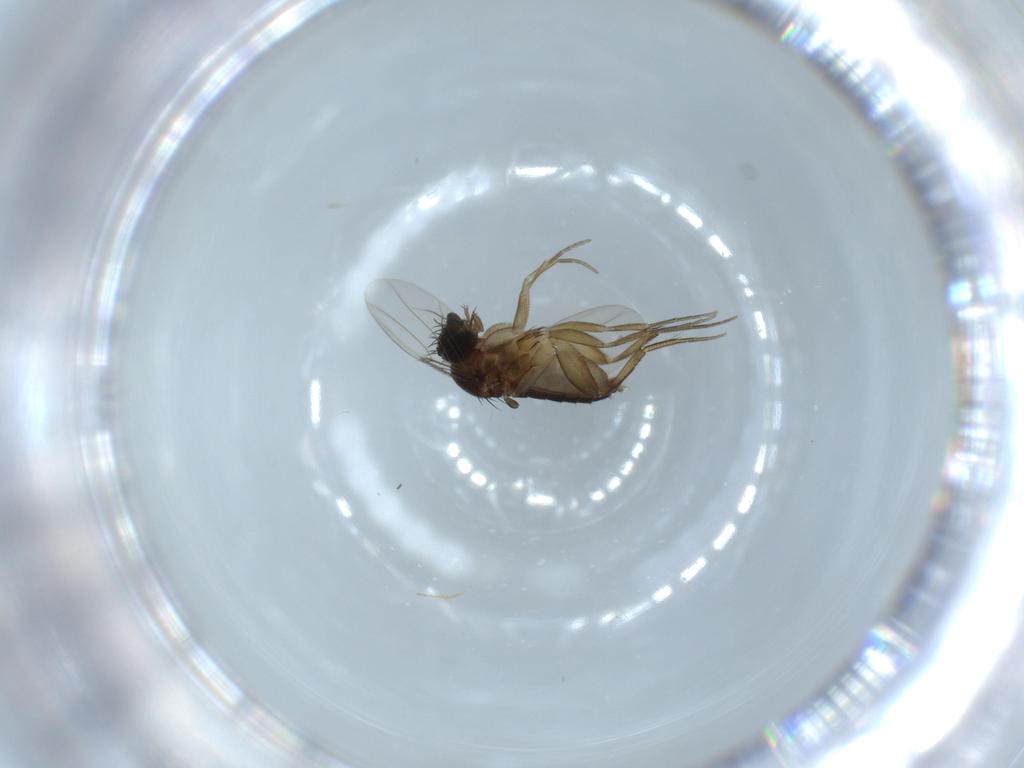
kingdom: Animalia
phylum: Arthropoda
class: Insecta
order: Diptera
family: Phoridae
